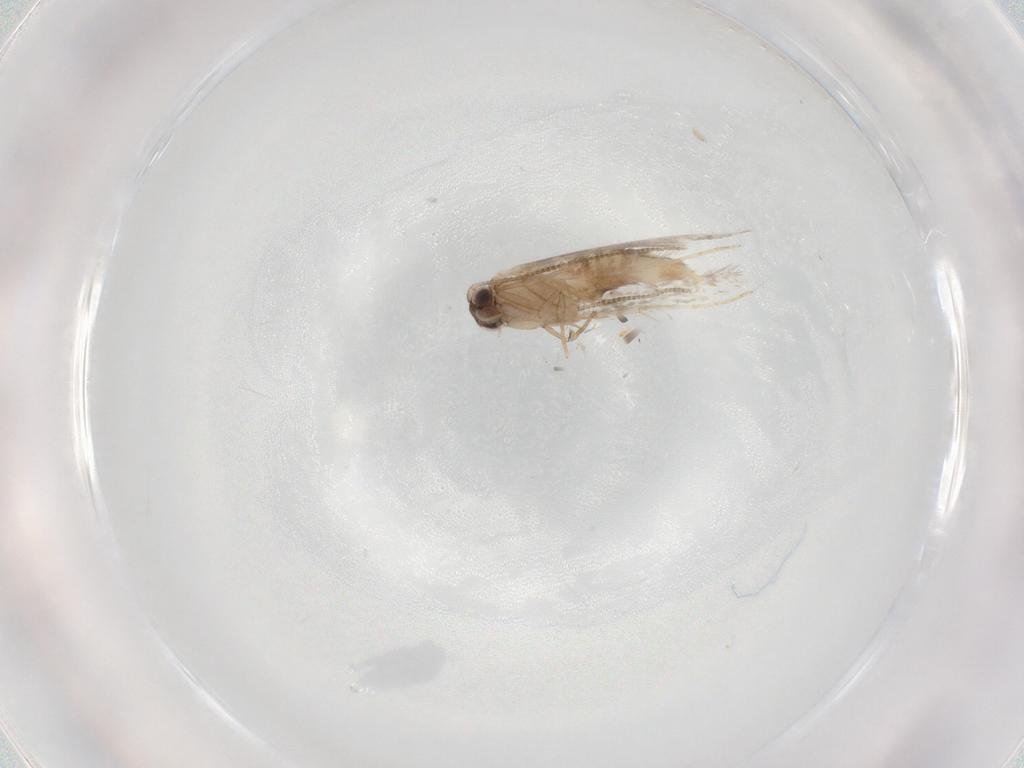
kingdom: Animalia
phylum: Arthropoda
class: Insecta
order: Lepidoptera
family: Tineidae
